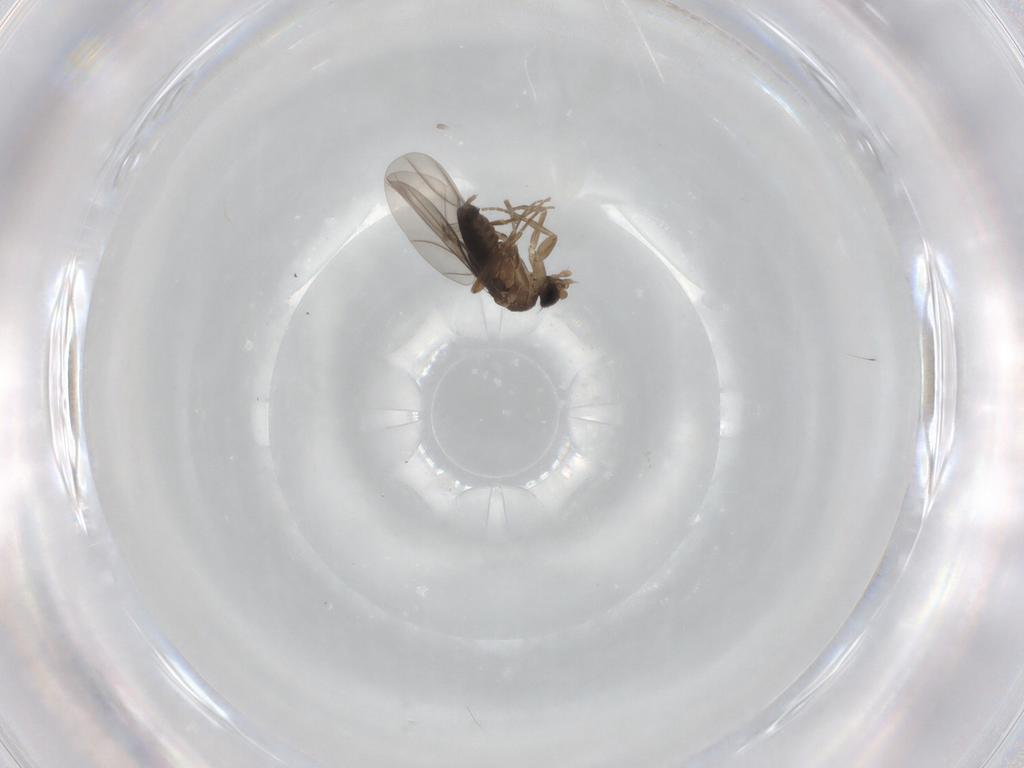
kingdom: Animalia
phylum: Arthropoda
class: Insecta
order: Diptera
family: Phoridae
